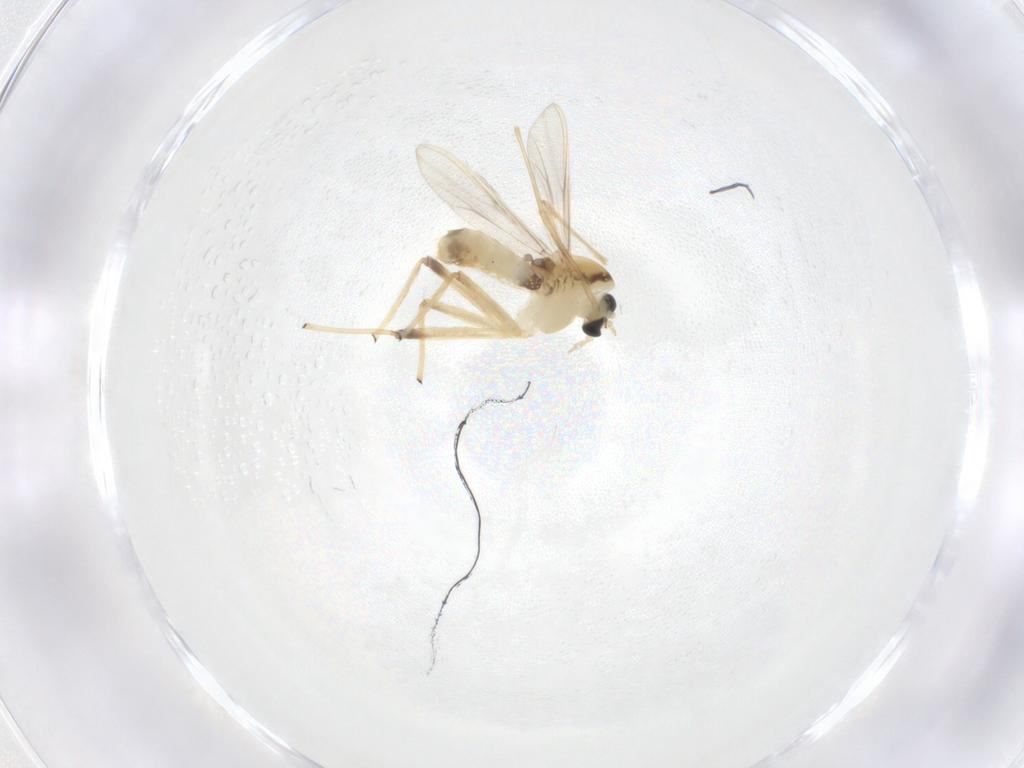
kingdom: Animalia
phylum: Arthropoda
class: Insecta
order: Diptera
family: Chironomidae
